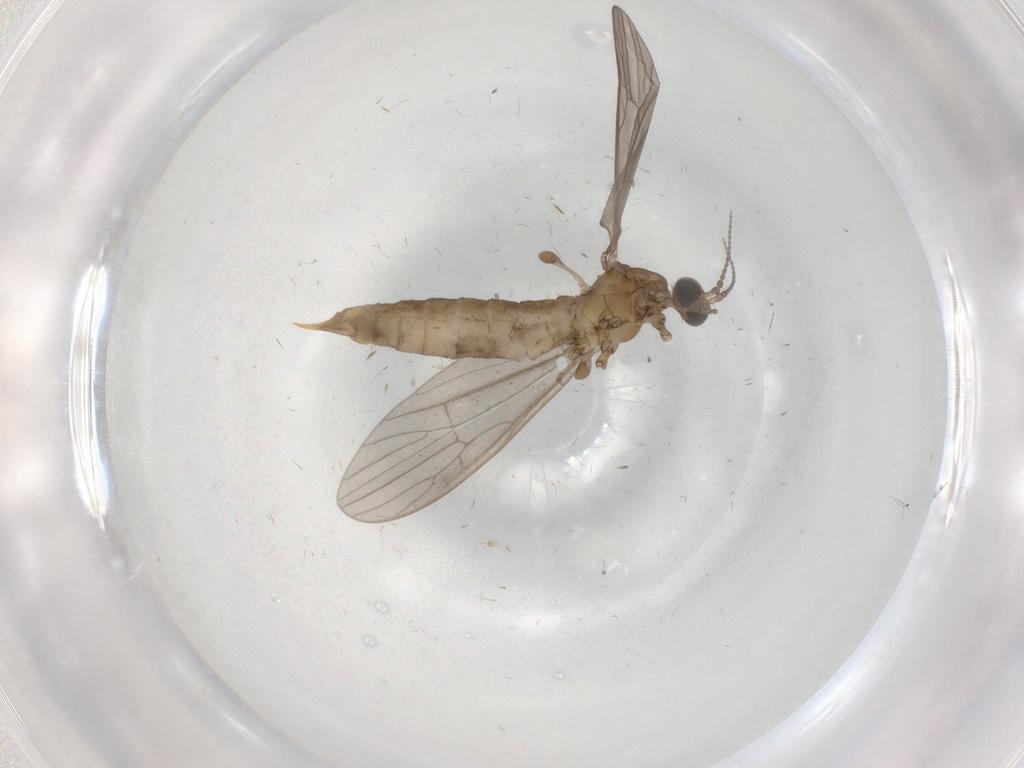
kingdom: Animalia
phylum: Arthropoda
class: Insecta
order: Diptera
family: Limoniidae
